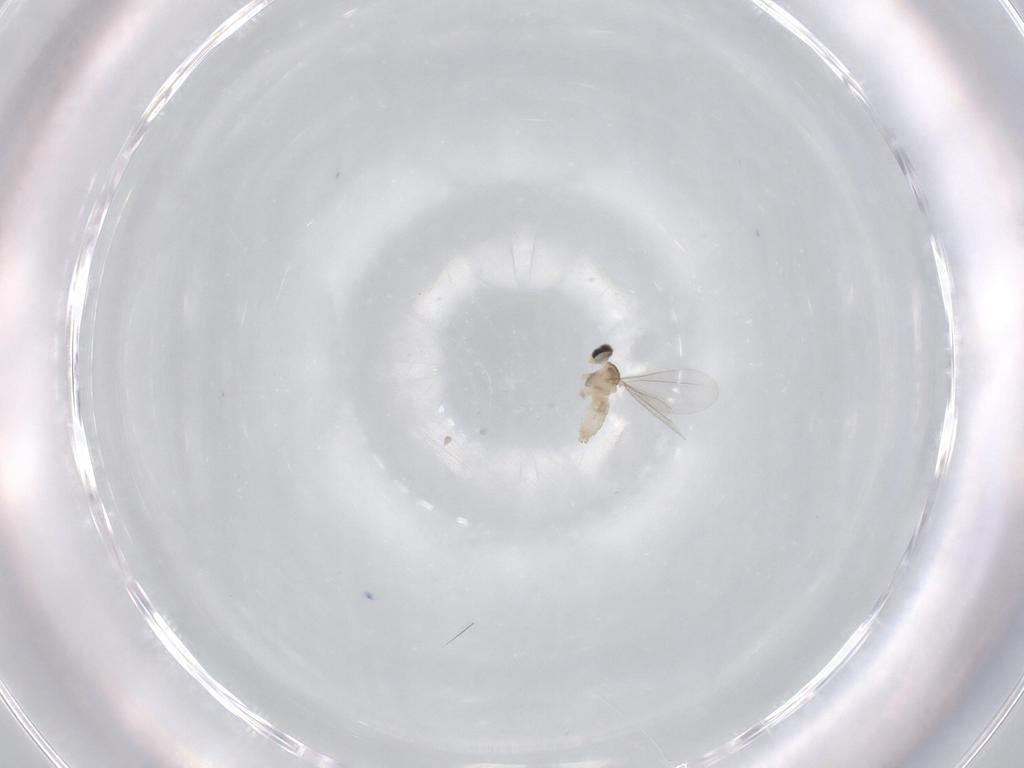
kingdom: Animalia
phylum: Arthropoda
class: Insecta
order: Diptera
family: Cecidomyiidae
